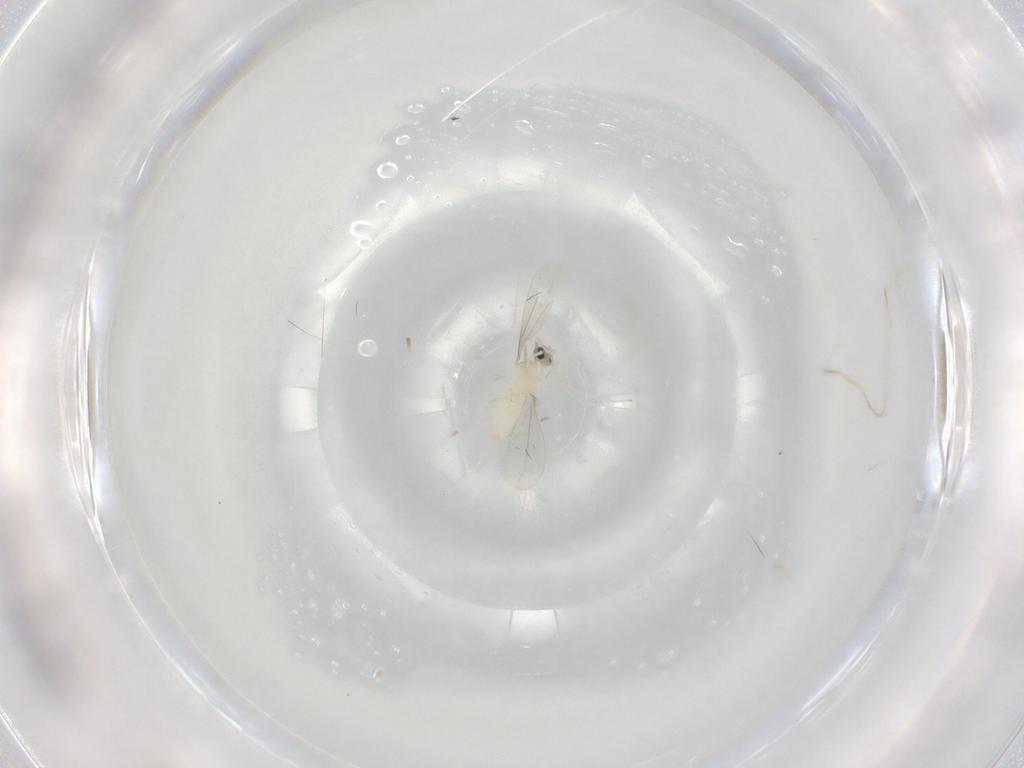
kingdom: Animalia
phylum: Arthropoda
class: Insecta
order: Diptera
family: Cecidomyiidae
